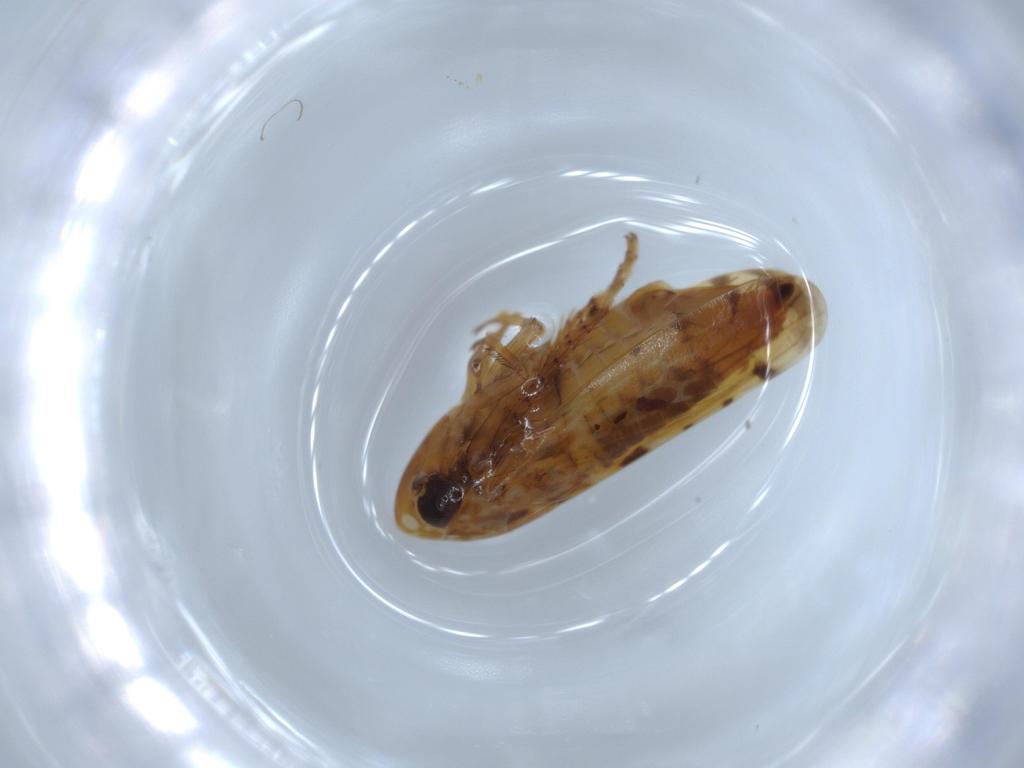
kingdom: Animalia
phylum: Arthropoda
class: Insecta
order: Hemiptera
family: Cicadellidae
